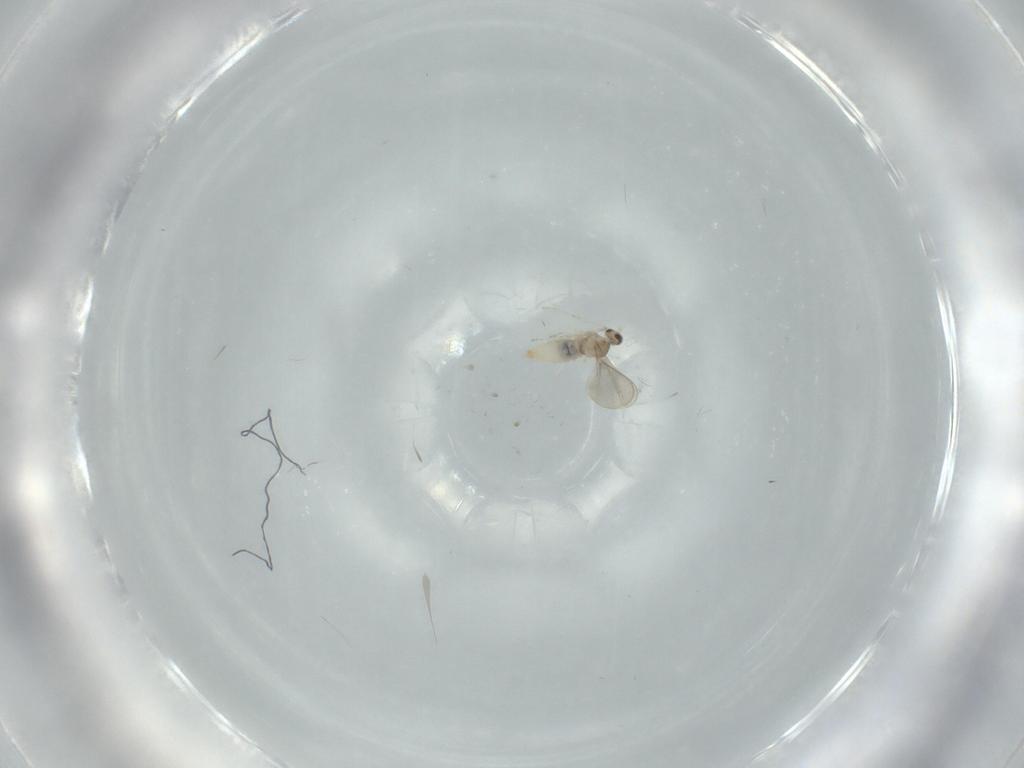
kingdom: Animalia
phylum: Arthropoda
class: Insecta
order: Diptera
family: Cecidomyiidae
